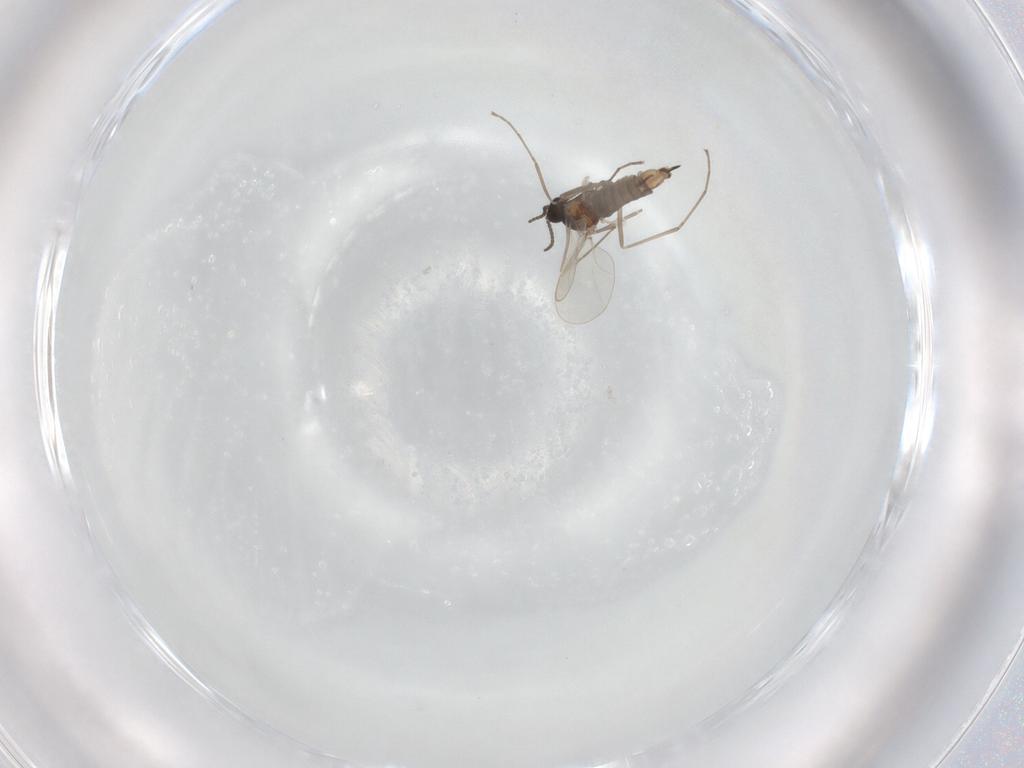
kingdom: Animalia
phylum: Arthropoda
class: Insecta
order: Diptera
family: Cecidomyiidae
